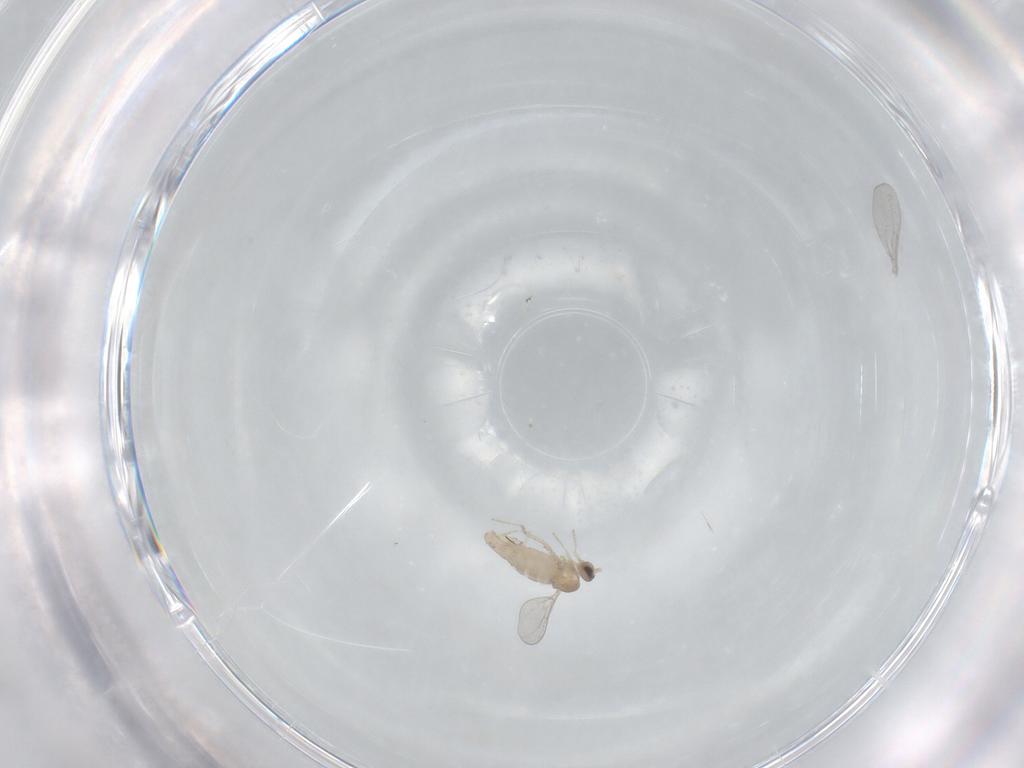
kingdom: Animalia
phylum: Arthropoda
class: Insecta
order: Diptera
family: Cecidomyiidae
